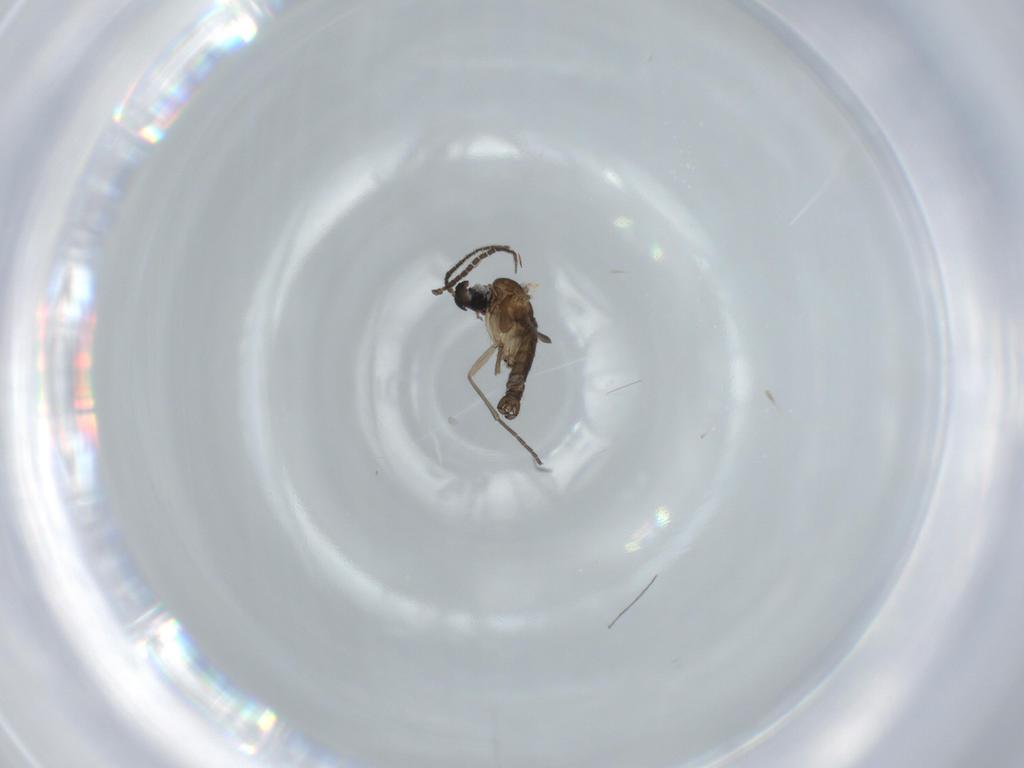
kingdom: Animalia
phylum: Arthropoda
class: Insecta
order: Diptera
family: Sciaridae
